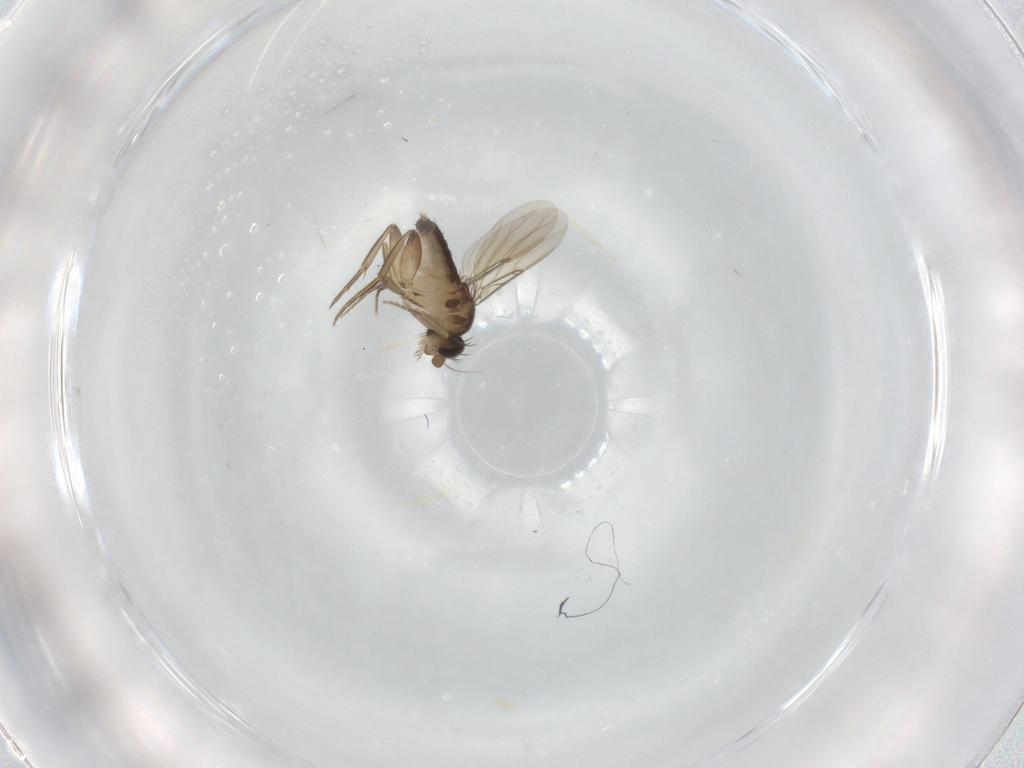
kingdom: Animalia
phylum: Arthropoda
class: Insecta
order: Diptera
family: Phoridae
